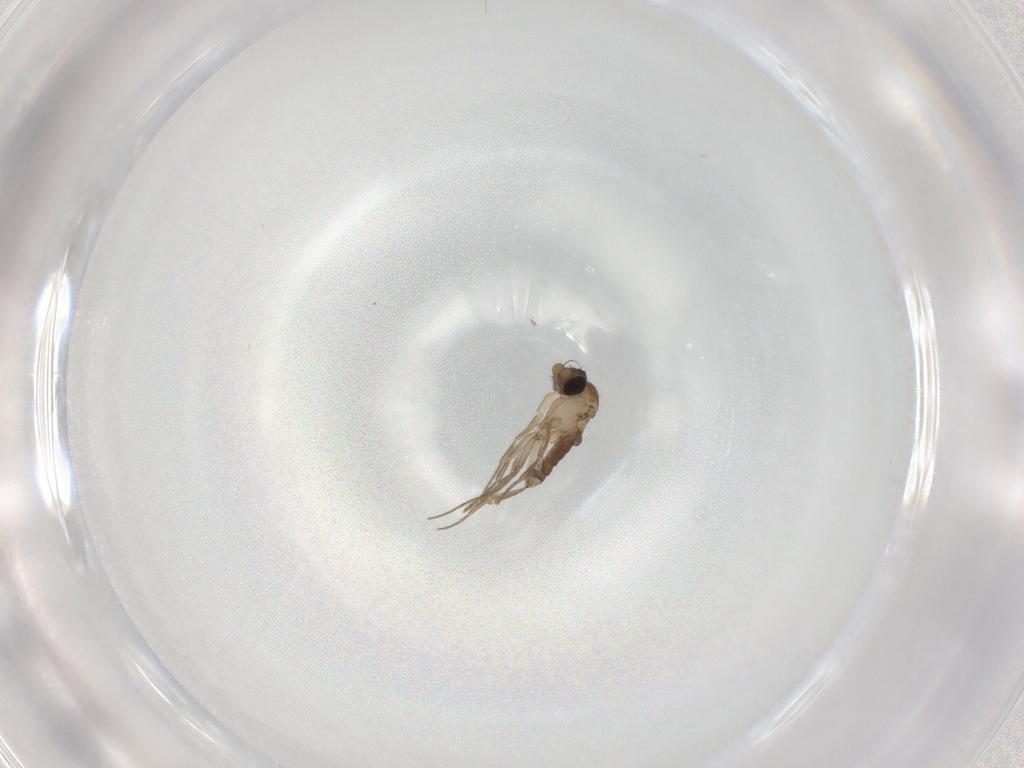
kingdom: Animalia
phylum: Arthropoda
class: Insecta
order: Diptera
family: Phoridae
